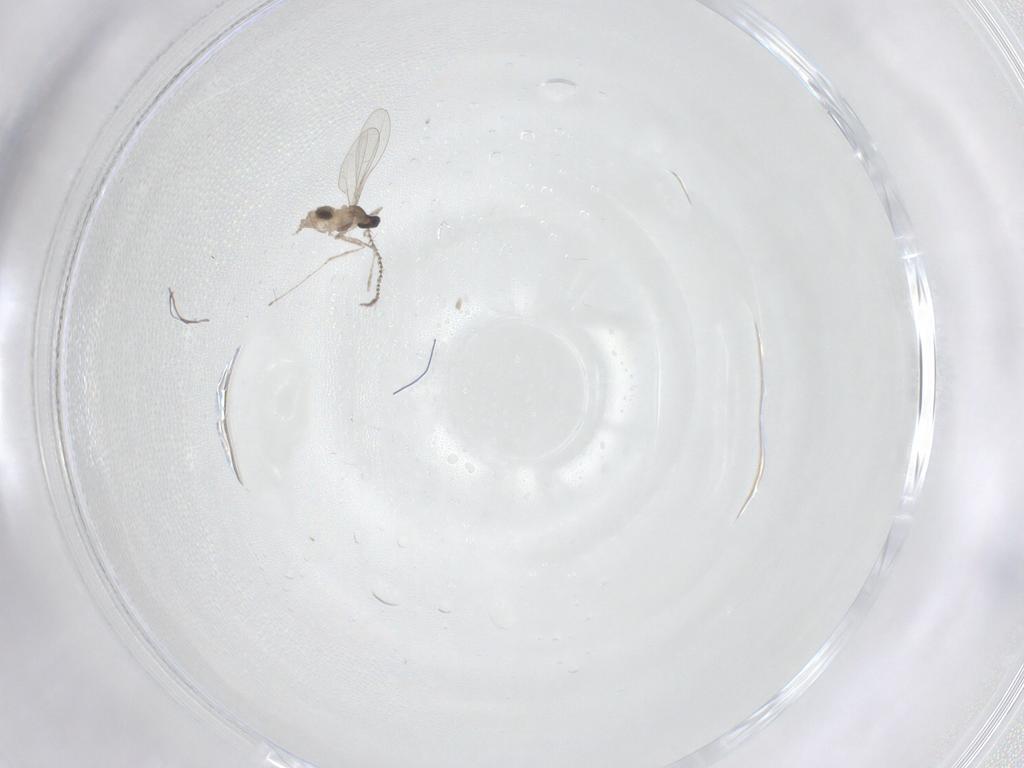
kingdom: Animalia
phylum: Arthropoda
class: Insecta
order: Diptera
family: Cecidomyiidae
